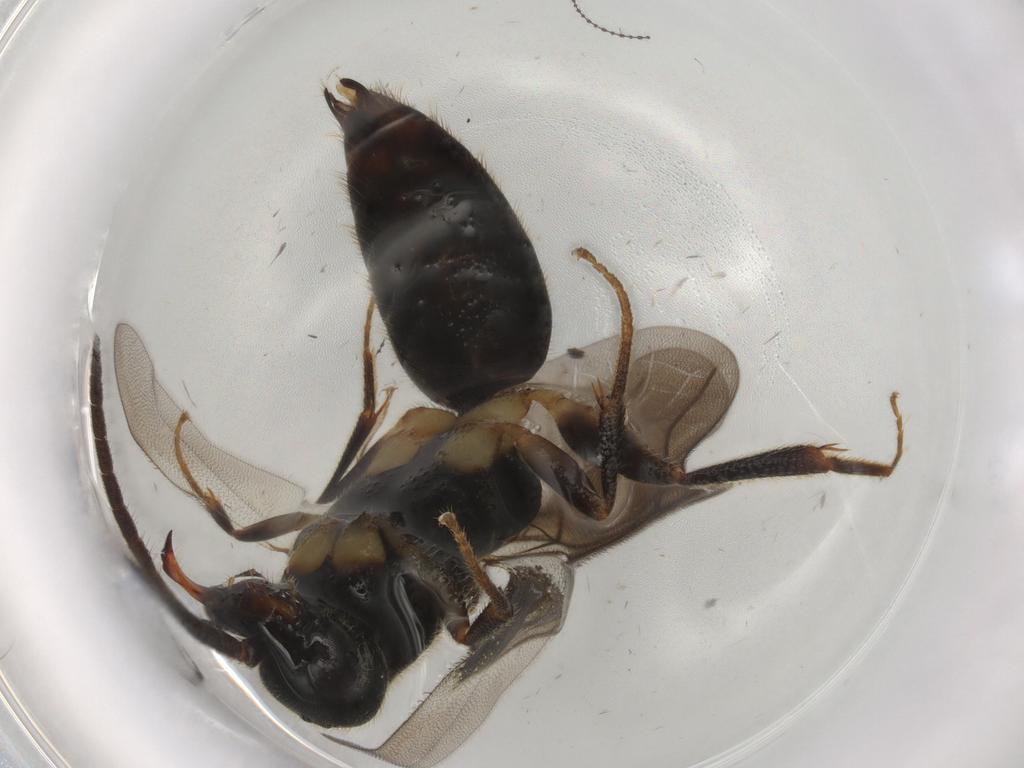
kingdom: Animalia
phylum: Arthropoda
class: Insecta
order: Hymenoptera
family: Bethylidae
